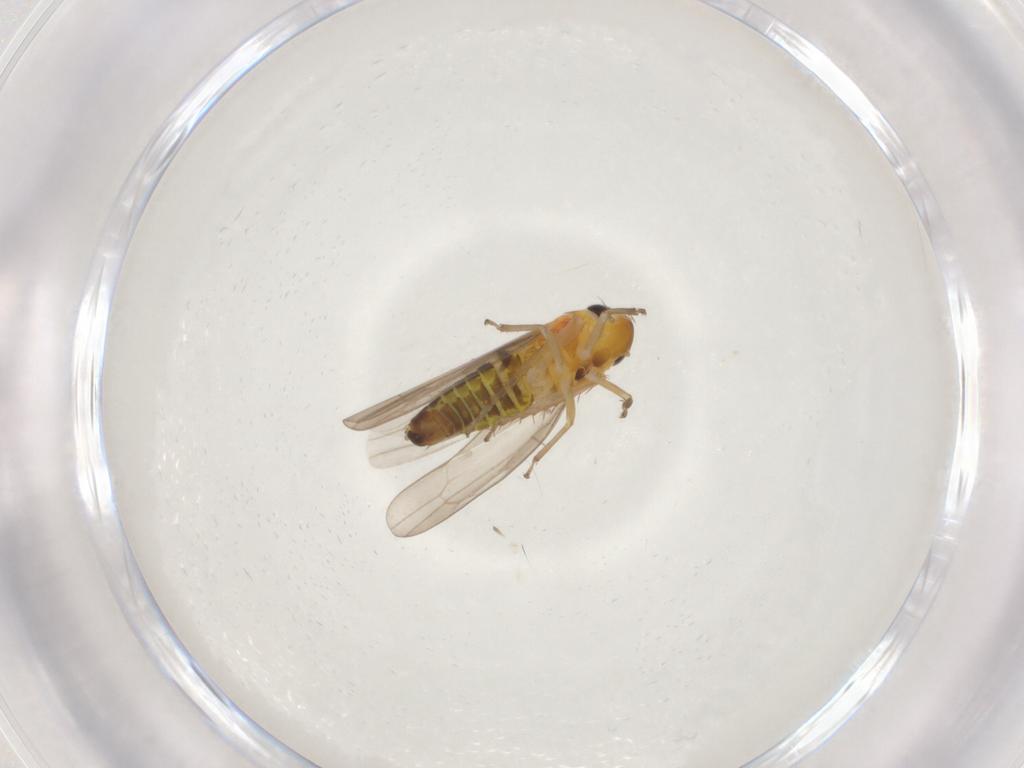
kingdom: Animalia
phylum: Arthropoda
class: Insecta
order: Hemiptera
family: Cicadellidae
